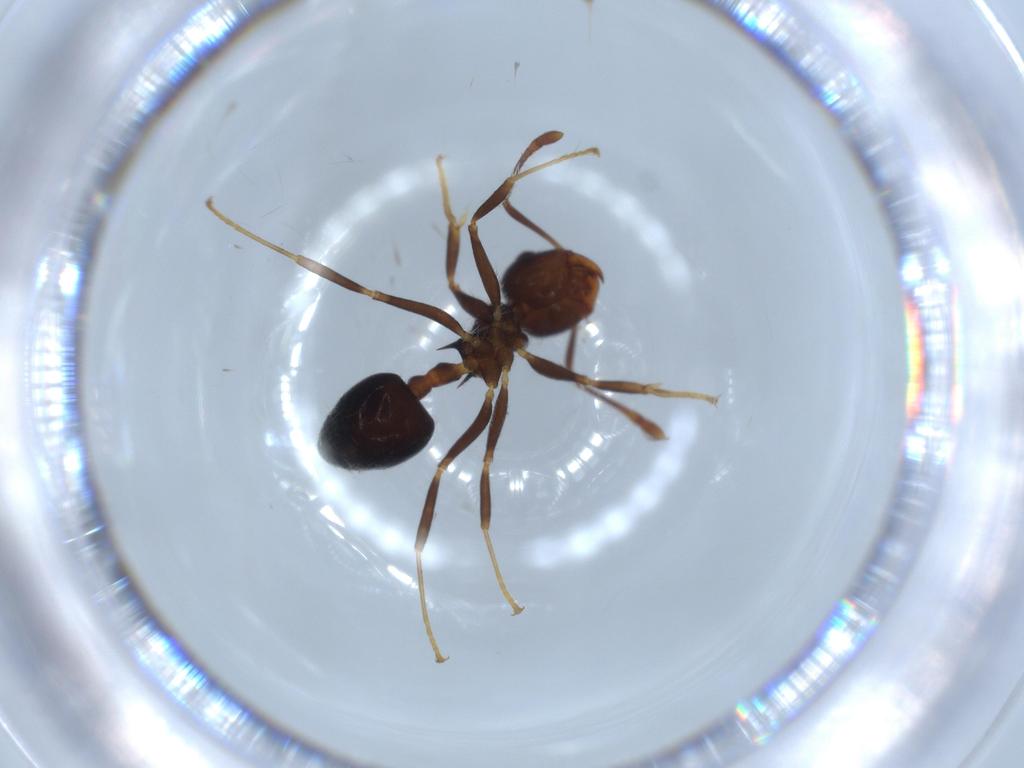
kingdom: Animalia
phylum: Arthropoda
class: Insecta
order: Hymenoptera
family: Formicidae
